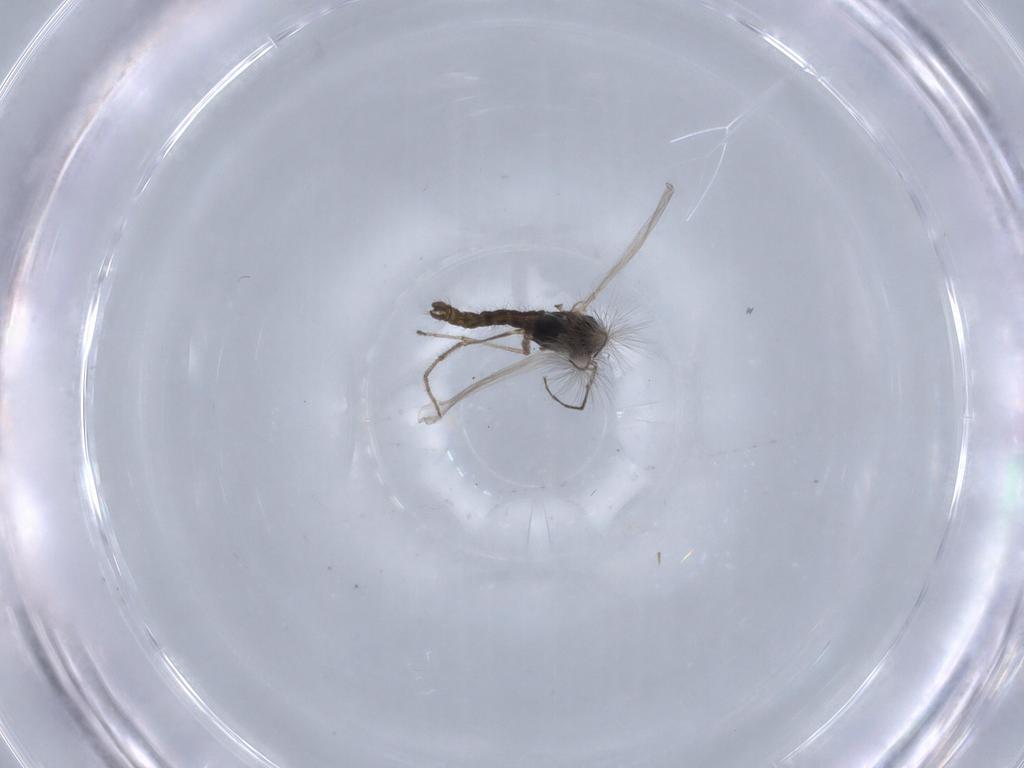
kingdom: Animalia
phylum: Arthropoda
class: Insecta
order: Diptera
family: Chironomidae
